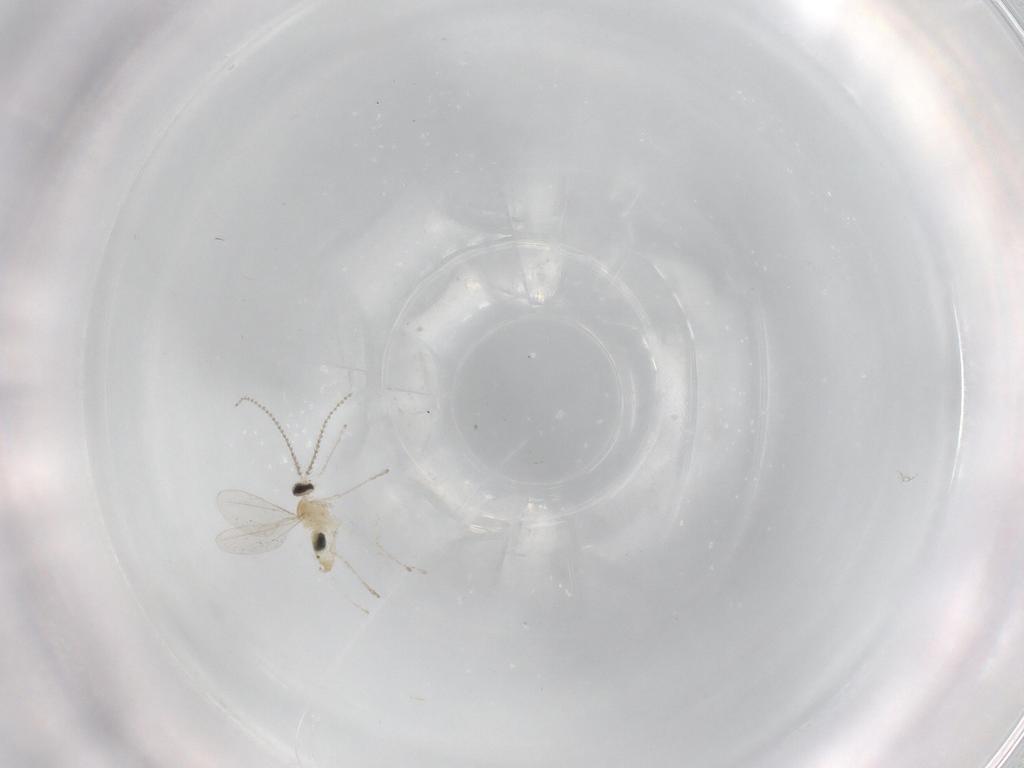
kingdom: Animalia
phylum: Arthropoda
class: Insecta
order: Diptera
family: Cecidomyiidae
